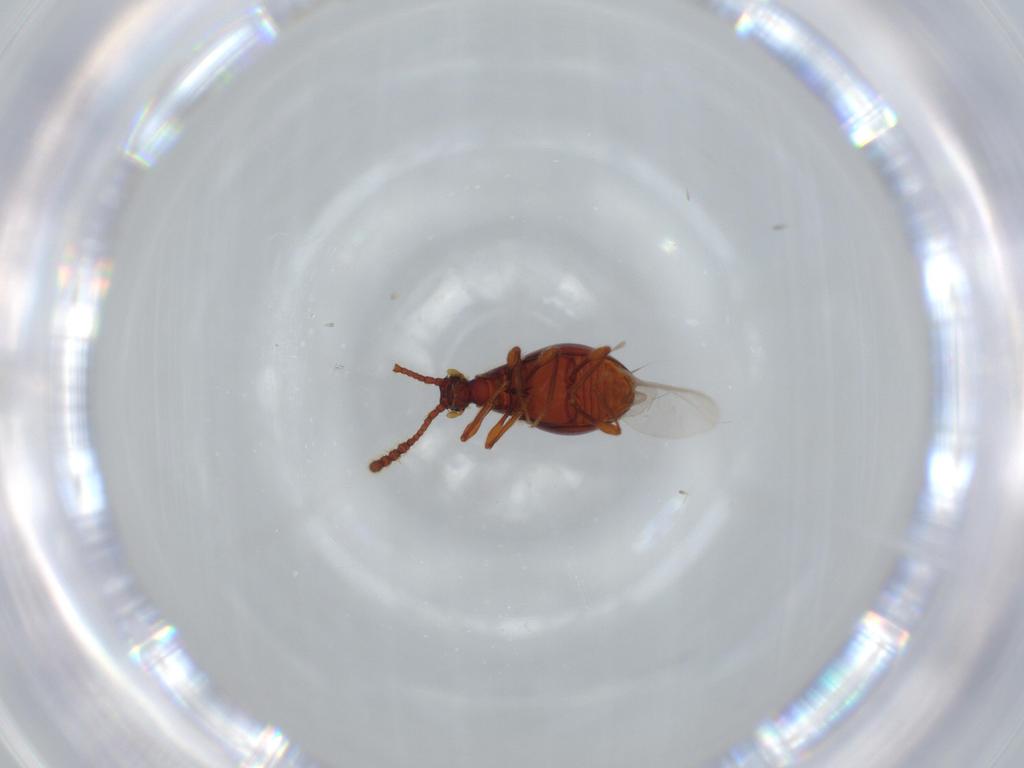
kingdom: Animalia
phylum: Arthropoda
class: Insecta
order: Coleoptera
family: Staphylinidae
